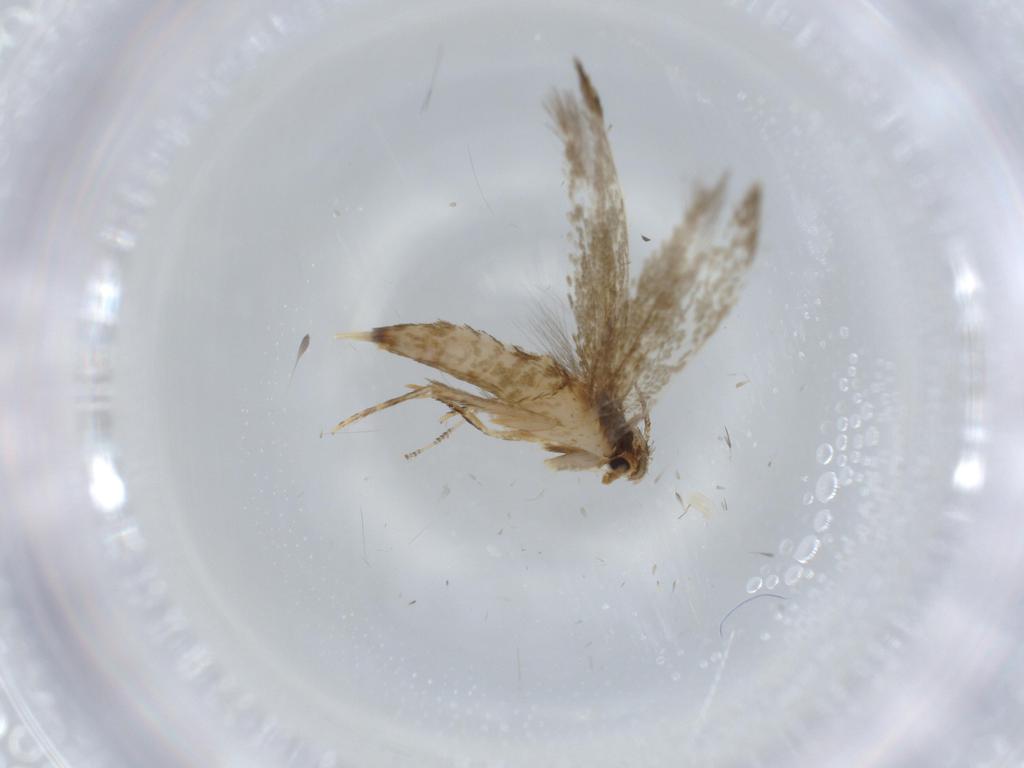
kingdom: Animalia
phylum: Arthropoda
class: Insecta
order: Lepidoptera
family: Tineidae
